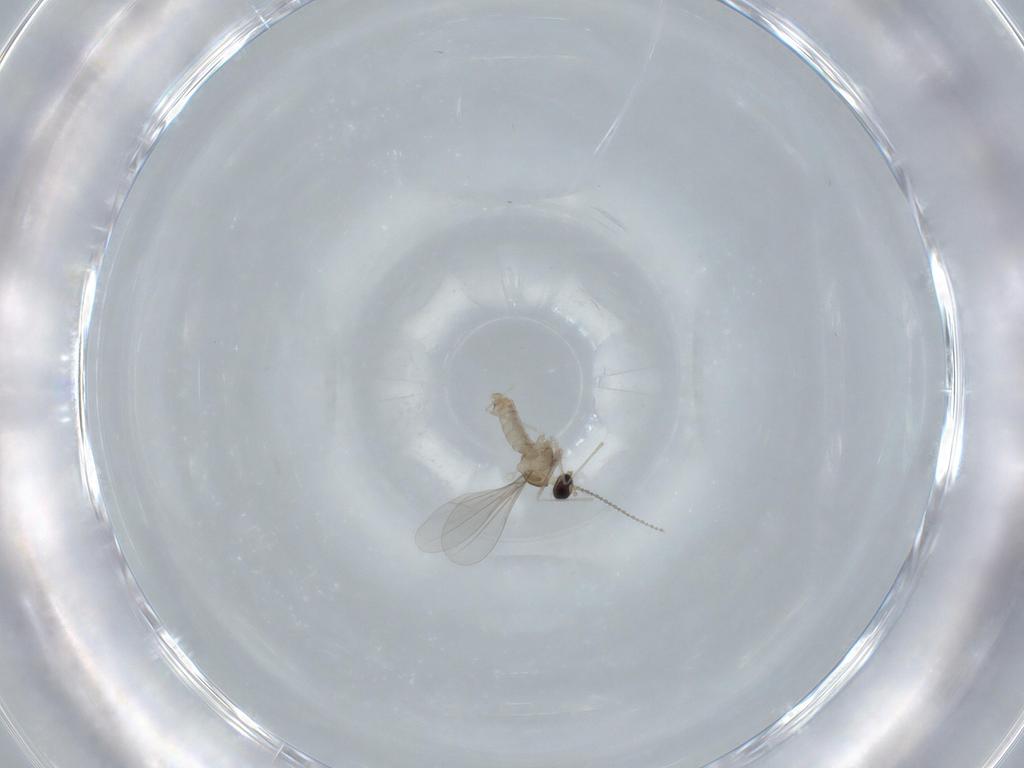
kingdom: Animalia
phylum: Arthropoda
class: Insecta
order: Diptera
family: Cecidomyiidae
